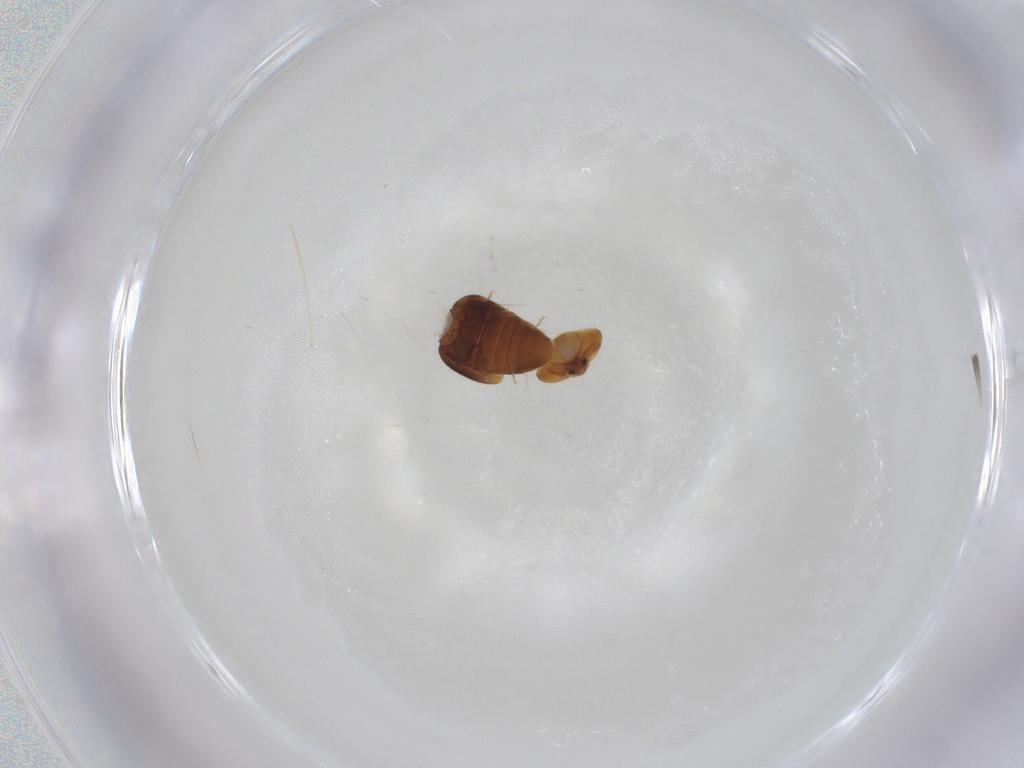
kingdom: Animalia
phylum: Arthropoda
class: Insecta
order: Coleoptera
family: Corylophidae
